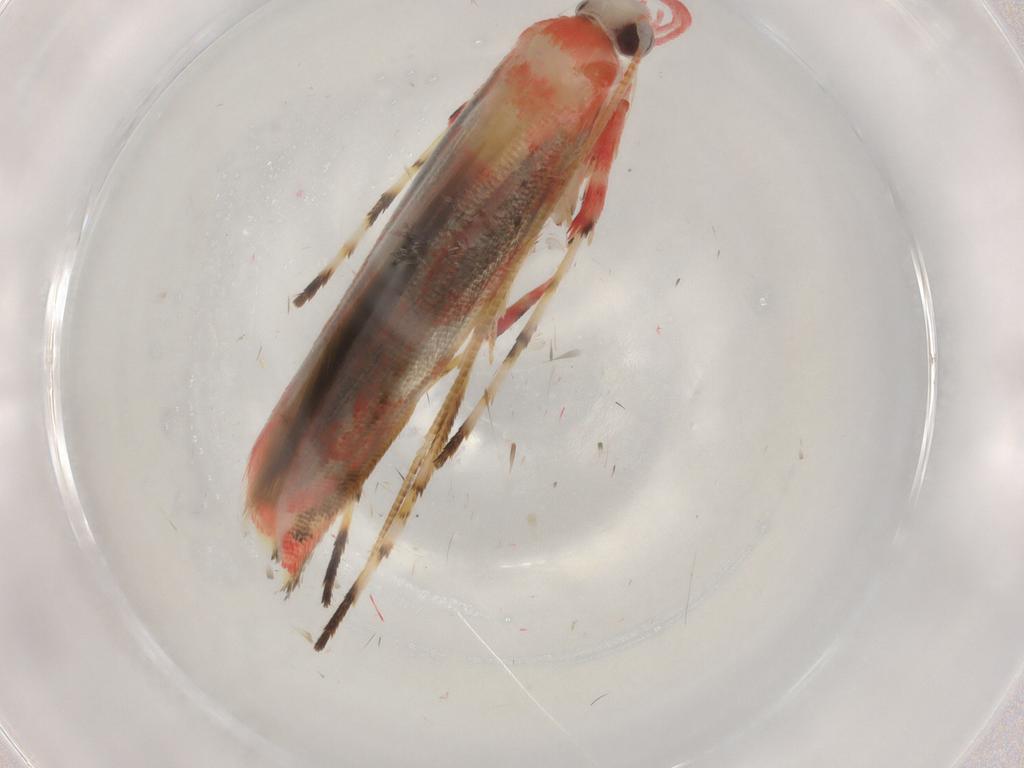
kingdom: Animalia
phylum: Arthropoda
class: Insecta
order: Lepidoptera
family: Gracillariidae
